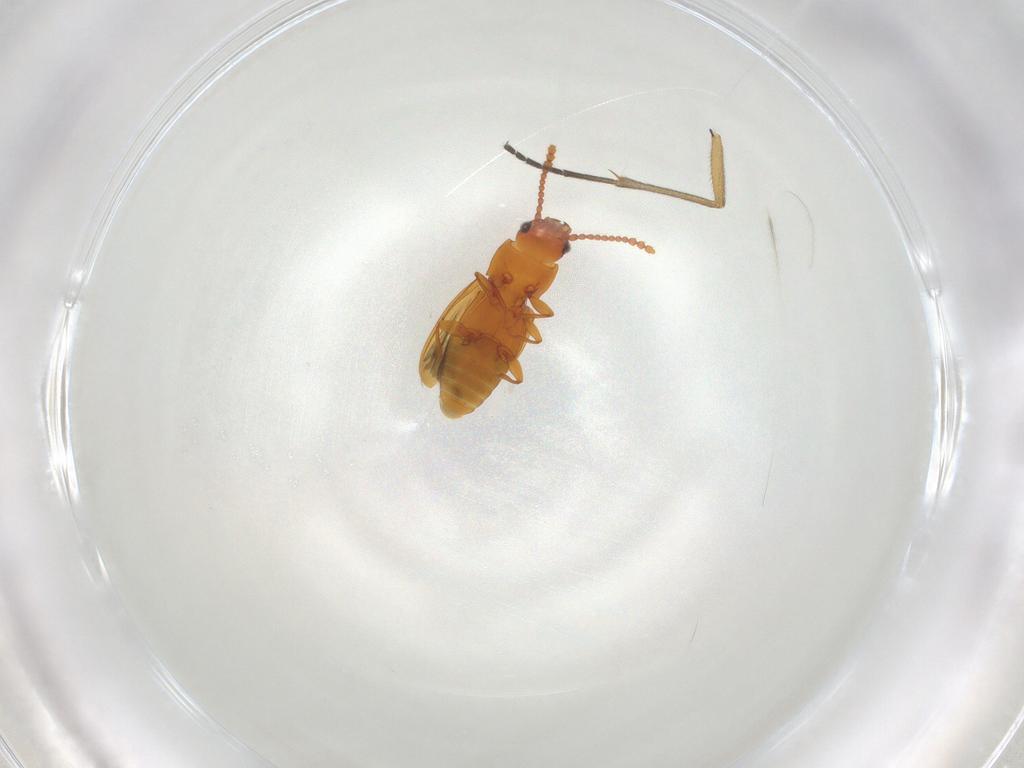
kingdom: Animalia
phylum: Arthropoda
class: Insecta
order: Coleoptera
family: Laemophloeidae
